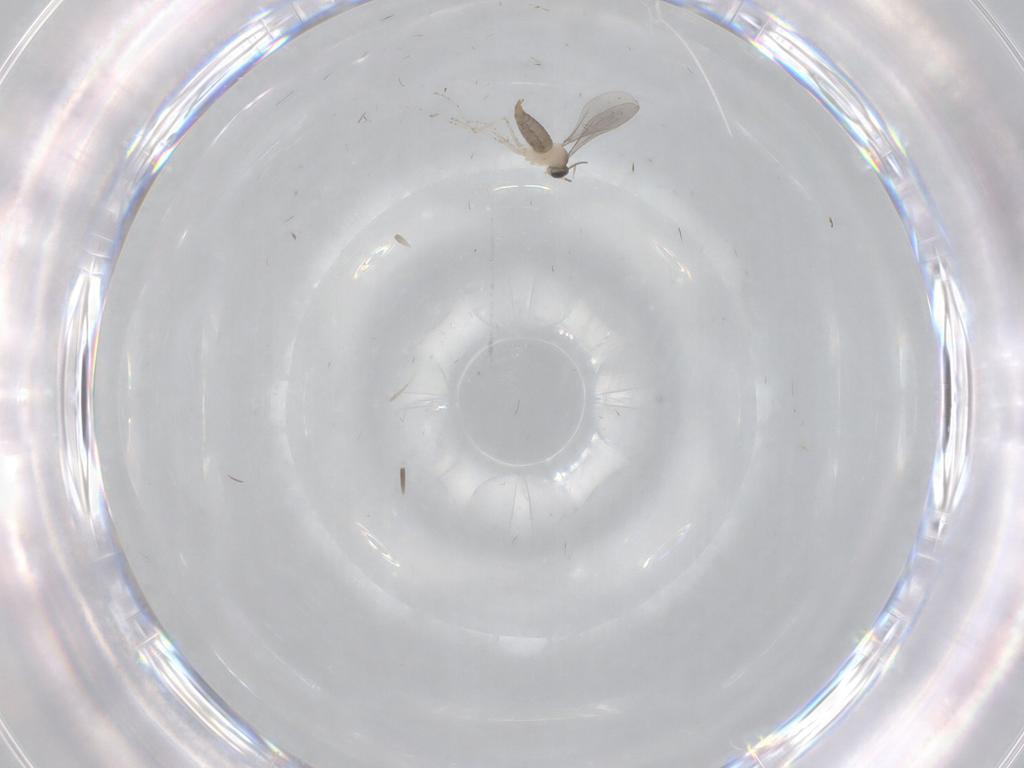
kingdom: Animalia
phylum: Arthropoda
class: Insecta
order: Diptera
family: Cecidomyiidae
